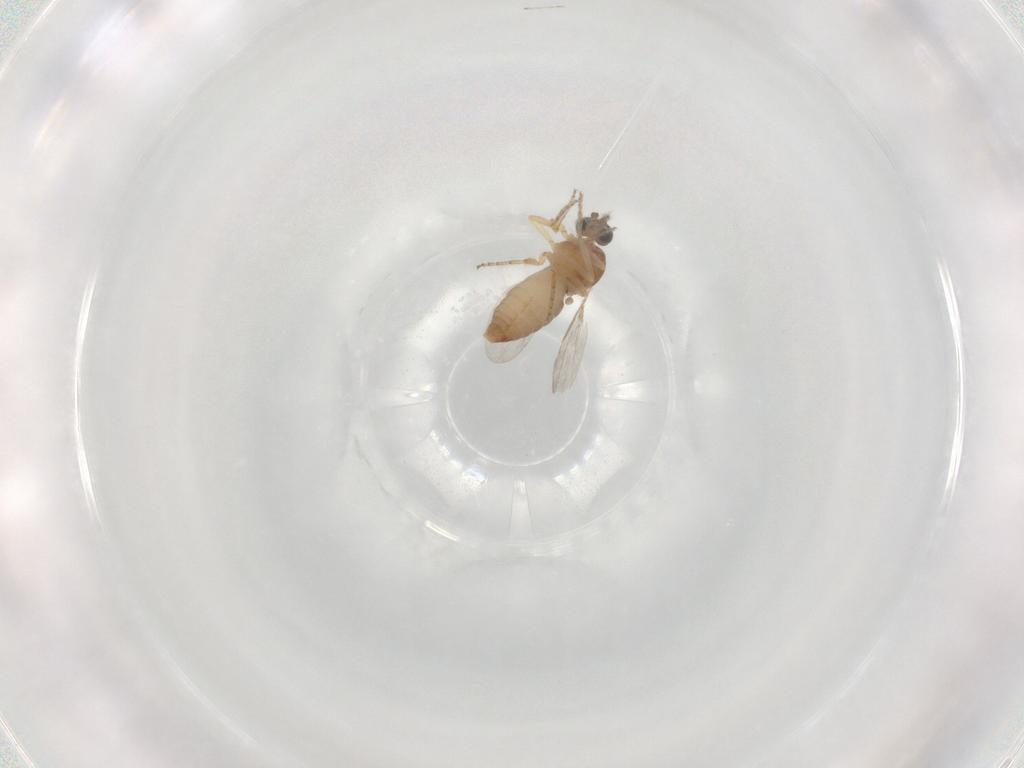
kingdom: Animalia
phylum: Arthropoda
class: Insecta
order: Diptera
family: Ceratopogonidae
